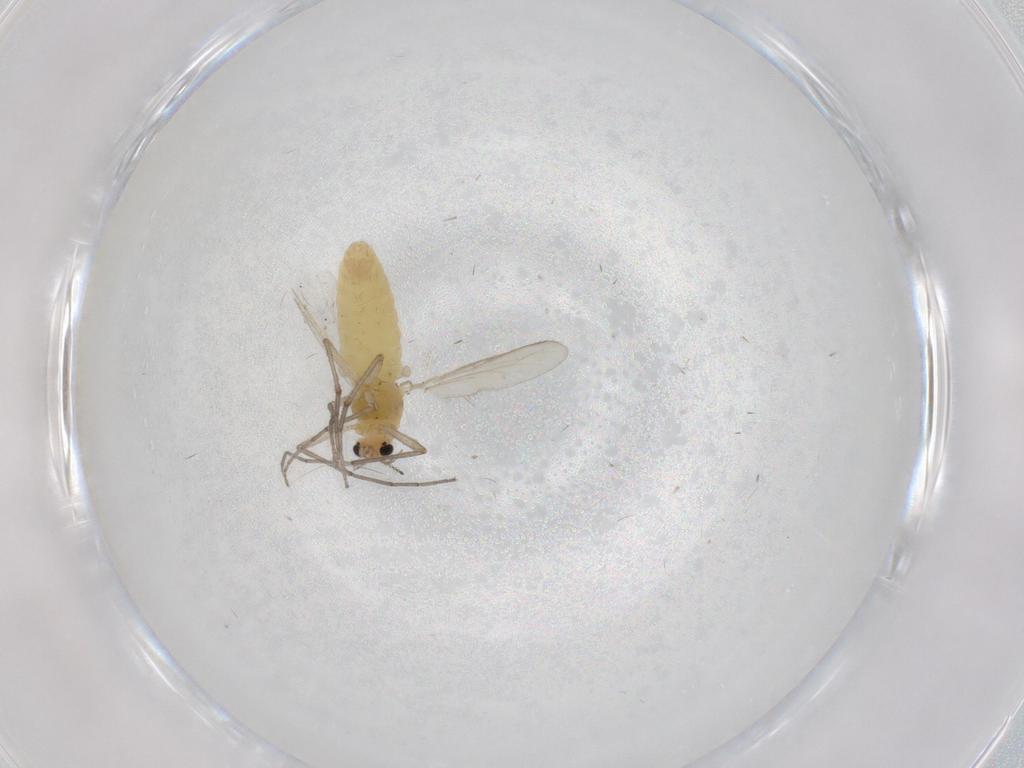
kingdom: Animalia
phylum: Arthropoda
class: Insecta
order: Diptera
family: Chironomidae
